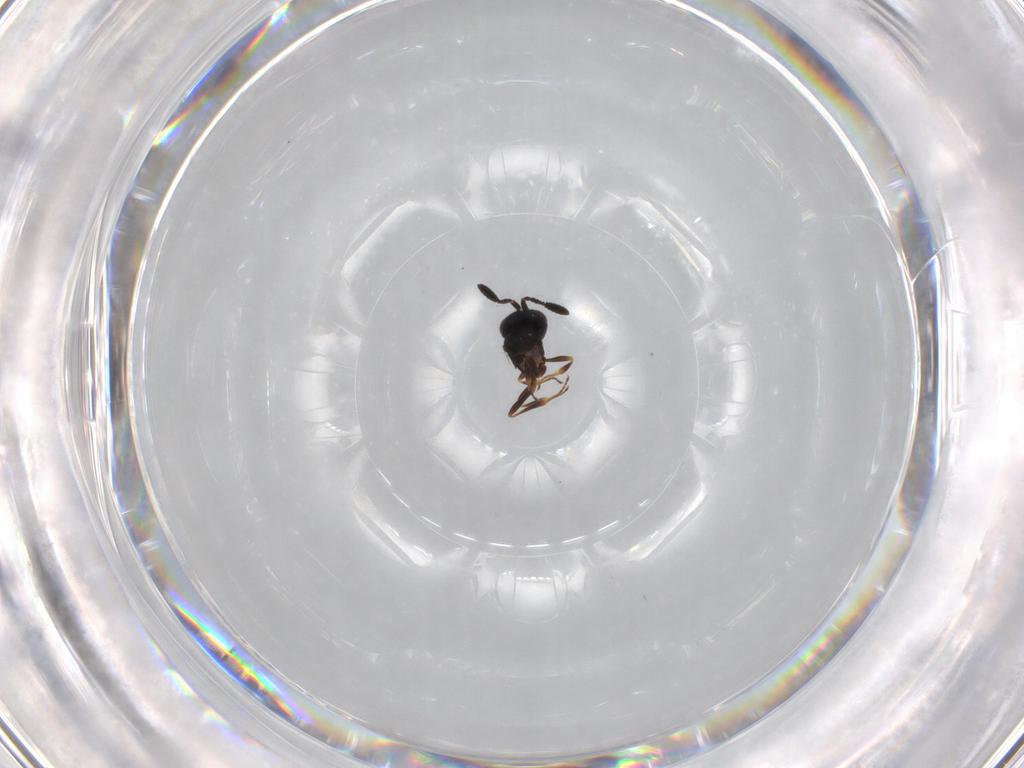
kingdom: Animalia
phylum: Arthropoda
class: Insecta
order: Hymenoptera
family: Scelionidae
